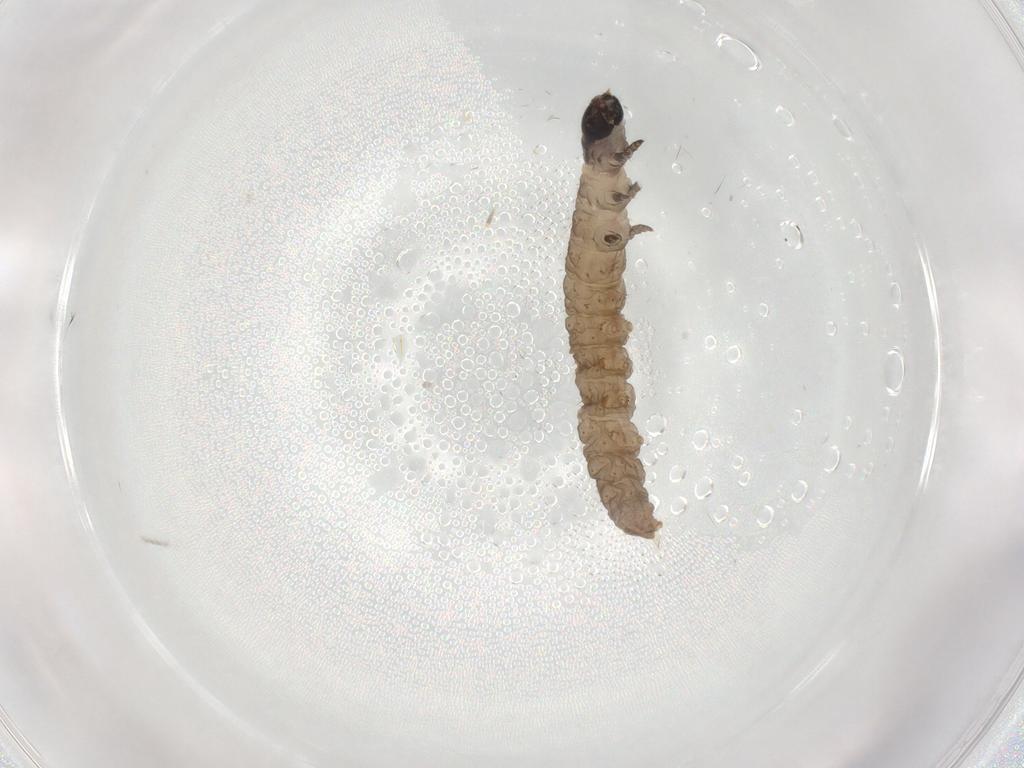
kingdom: Animalia
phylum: Arthropoda
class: Insecta
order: Lepidoptera
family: Tortricidae
